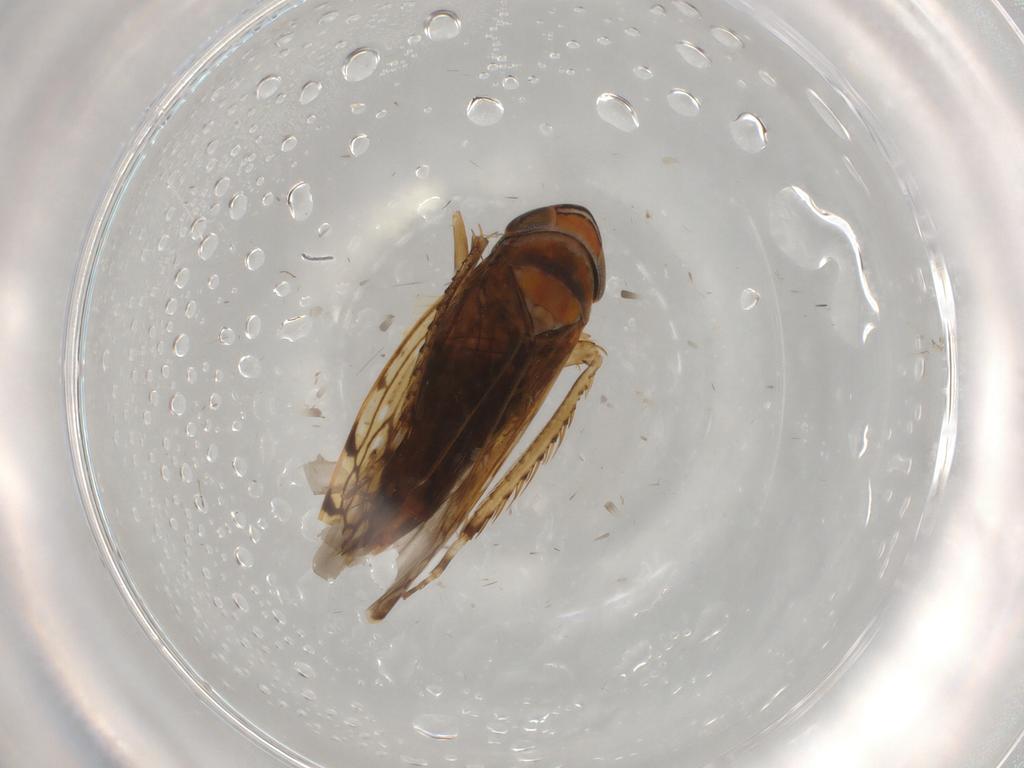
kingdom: Animalia
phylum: Arthropoda
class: Insecta
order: Hemiptera
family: Cicadellidae
